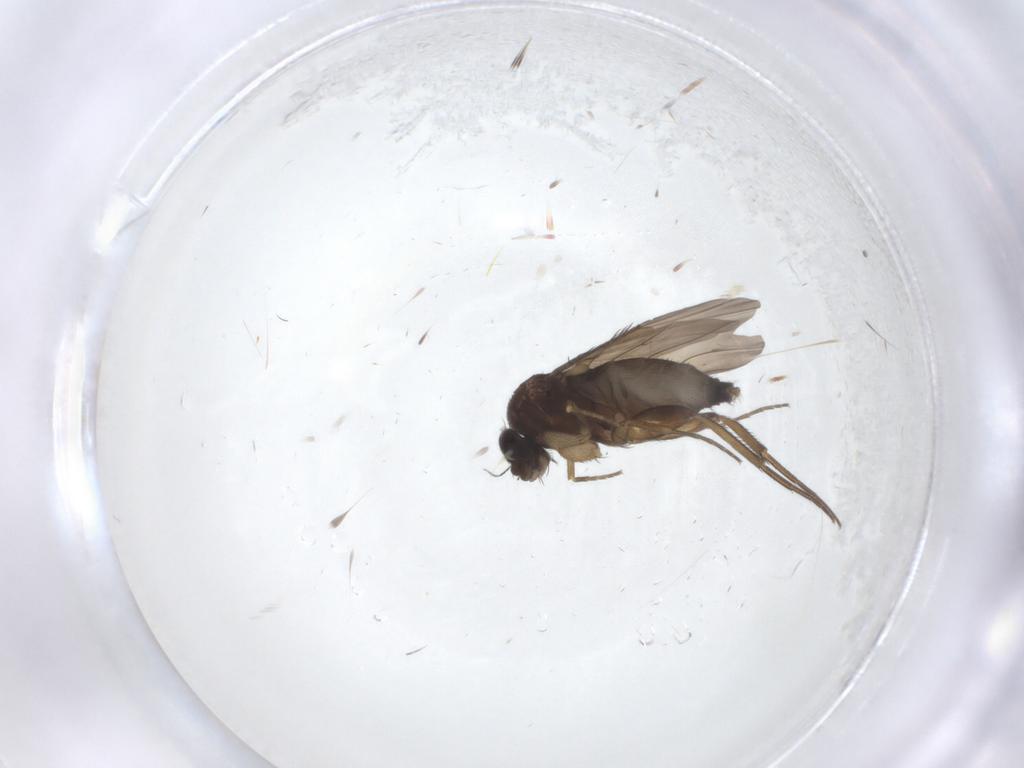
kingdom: Animalia
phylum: Arthropoda
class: Insecta
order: Diptera
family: Phoridae
